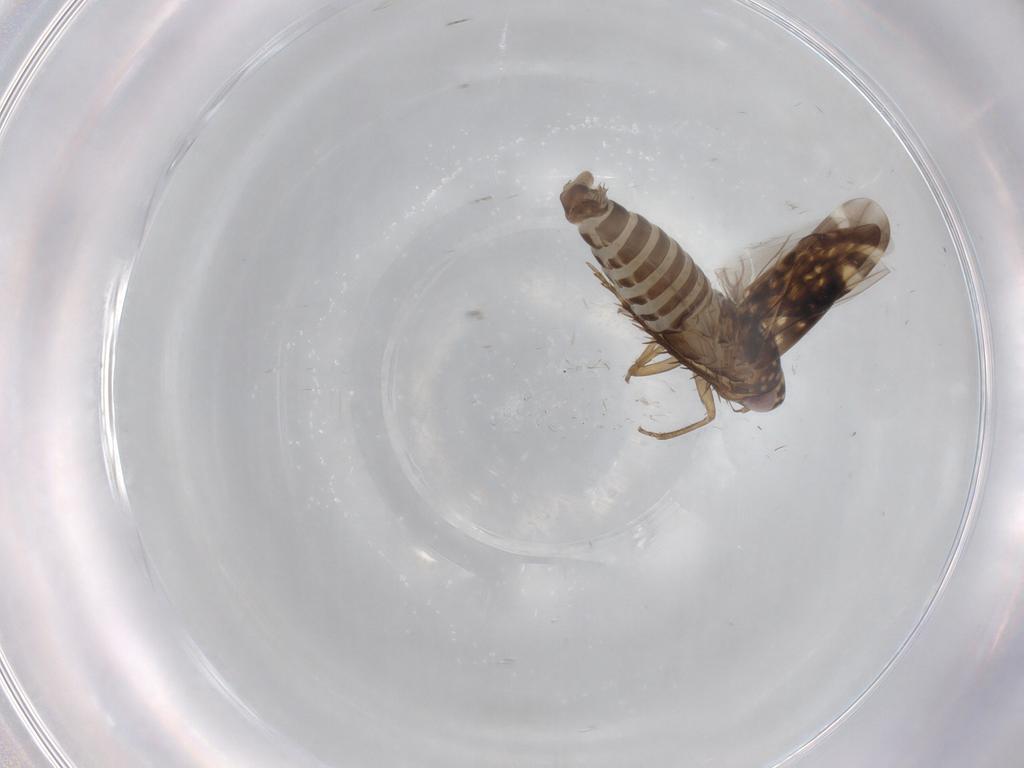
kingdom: Animalia
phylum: Arthropoda
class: Insecta
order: Hemiptera
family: Cicadellidae
